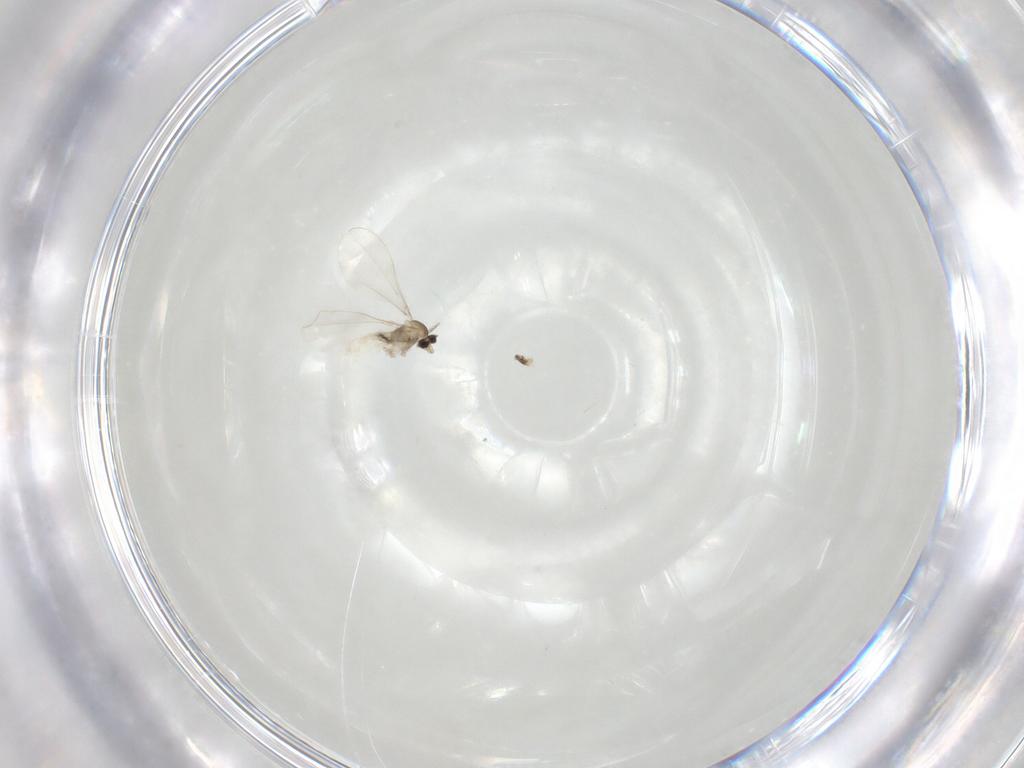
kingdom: Animalia
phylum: Arthropoda
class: Insecta
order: Diptera
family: Cecidomyiidae
